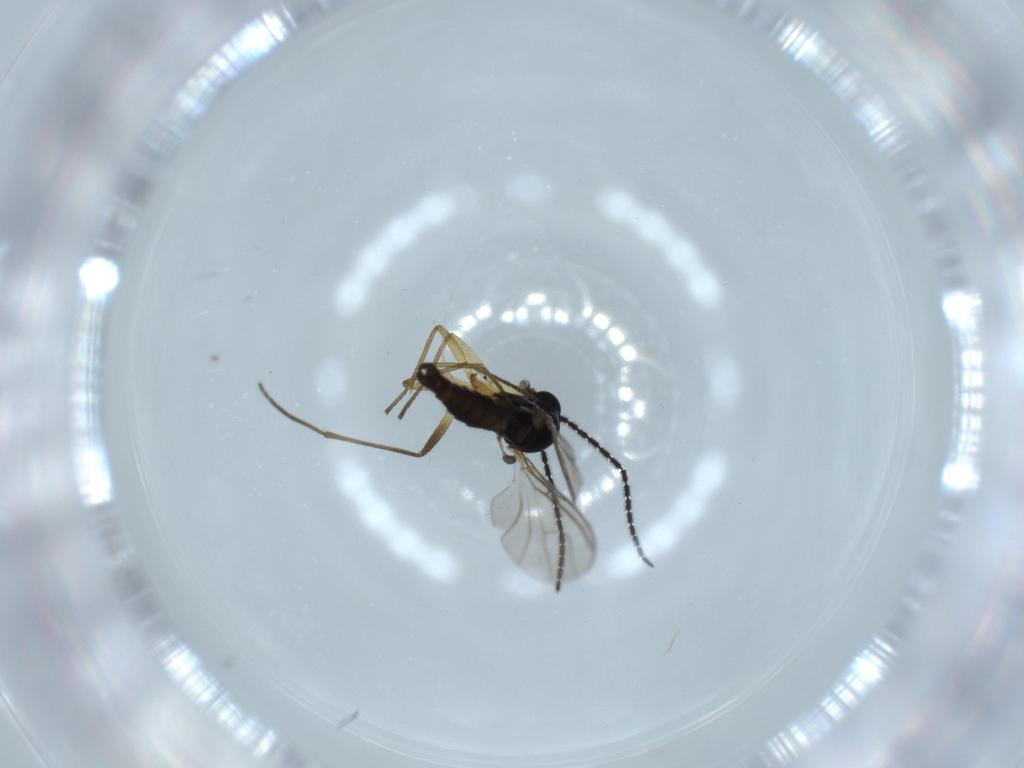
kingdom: Animalia
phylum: Arthropoda
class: Insecta
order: Diptera
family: Sciaridae
